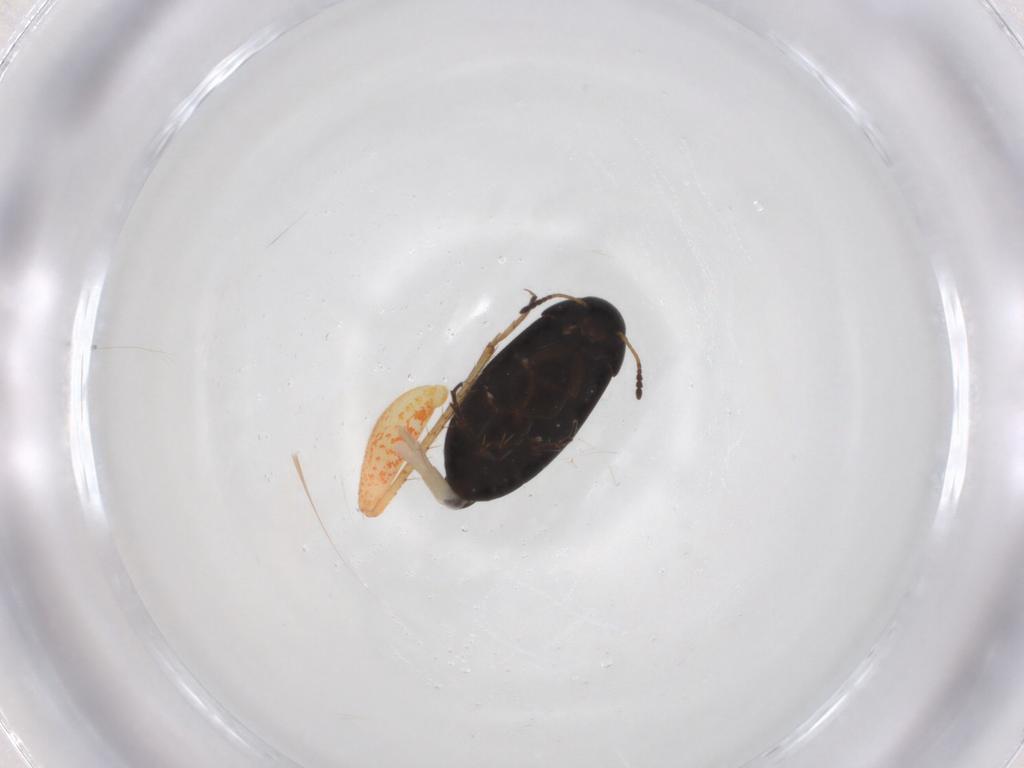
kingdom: Animalia
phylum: Arthropoda
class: Insecta
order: Coleoptera
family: Scraptiidae
